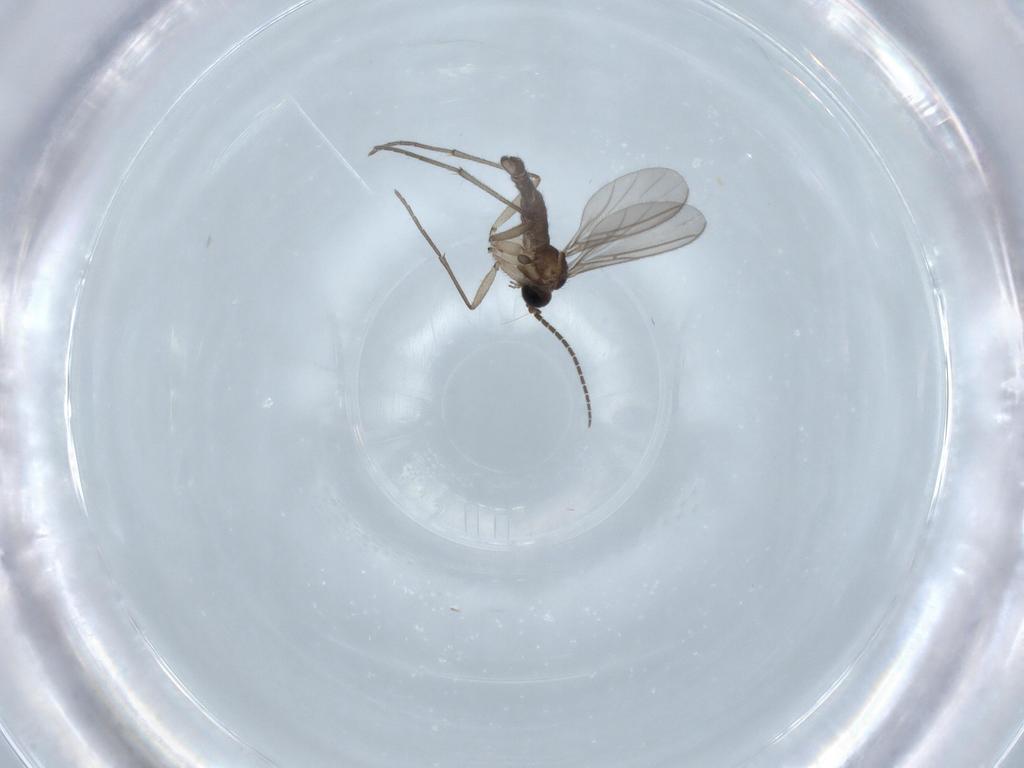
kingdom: Animalia
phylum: Arthropoda
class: Insecta
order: Diptera
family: Sciaridae
